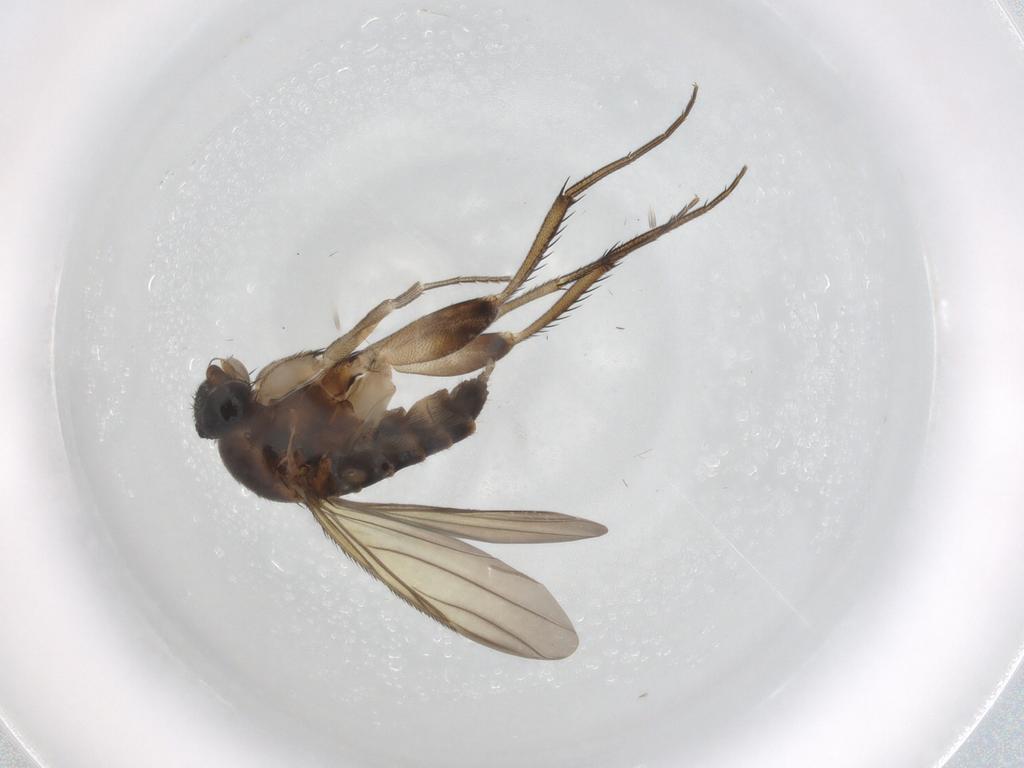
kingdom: Animalia
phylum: Arthropoda
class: Insecta
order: Diptera
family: Phoridae
